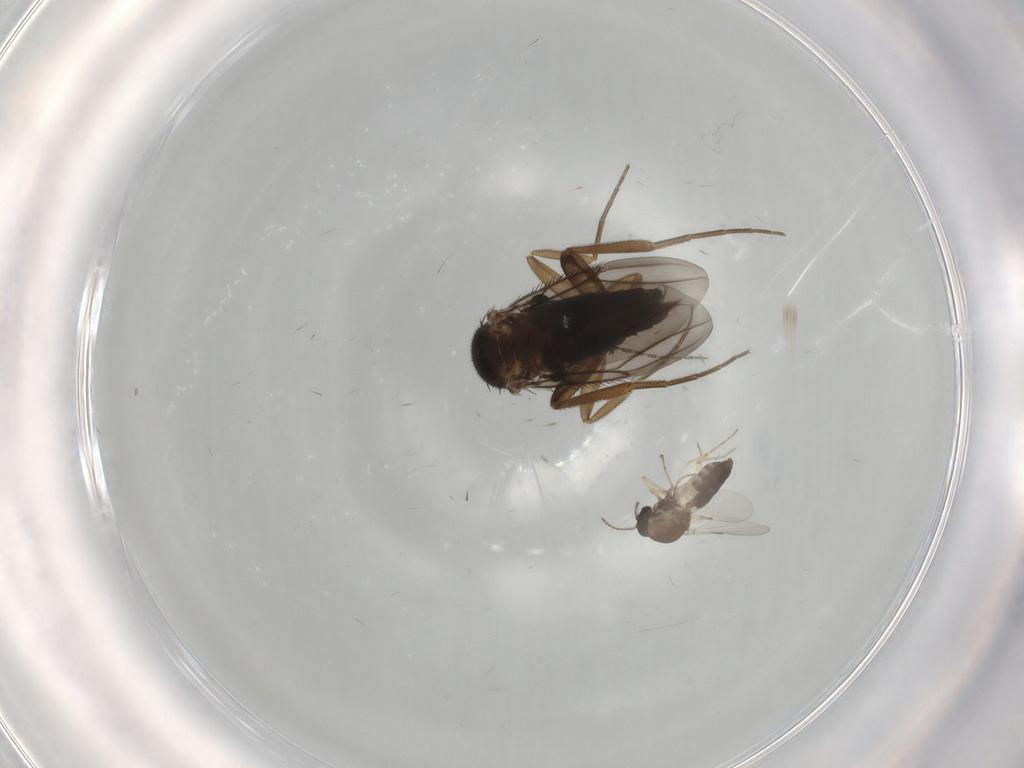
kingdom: Animalia
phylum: Arthropoda
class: Insecta
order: Diptera
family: Ceratopogonidae
